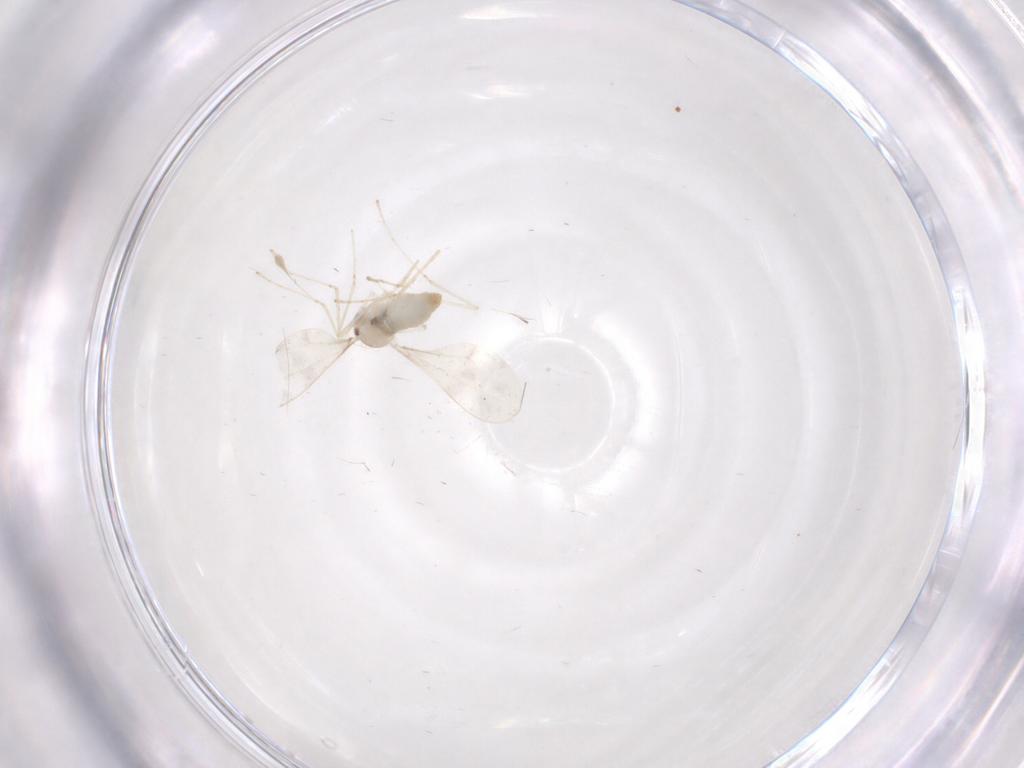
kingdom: Animalia
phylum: Arthropoda
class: Insecta
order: Diptera
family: Cecidomyiidae
